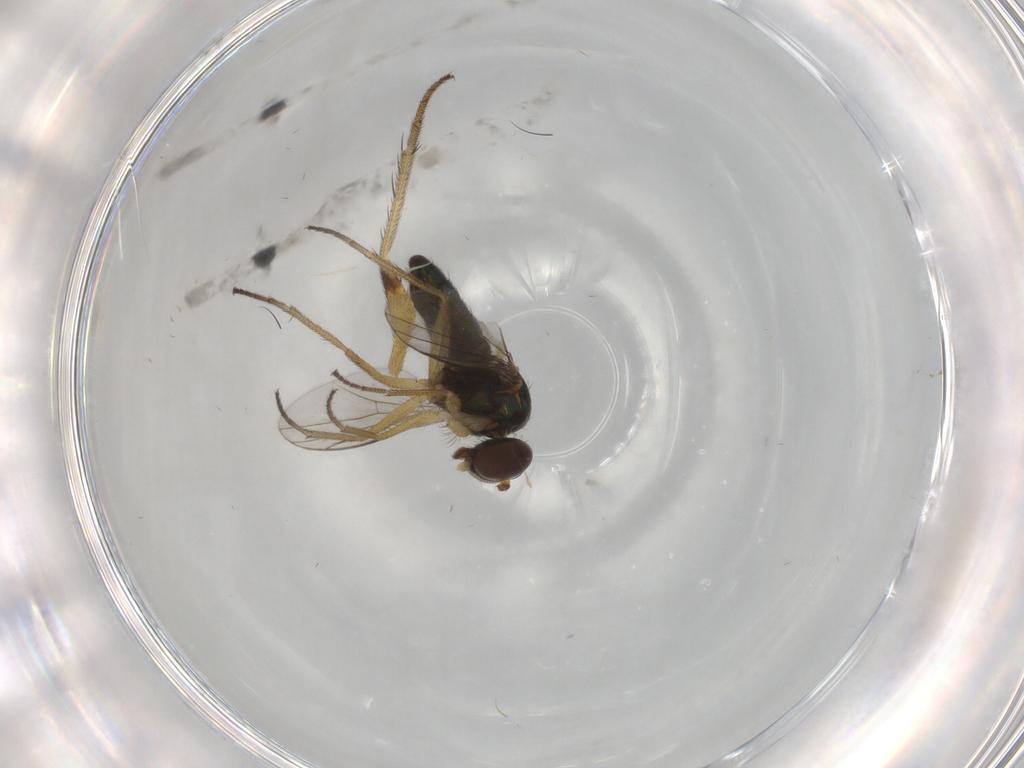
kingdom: Animalia
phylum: Arthropoda
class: Insecta
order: Diptera
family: Dolichopodidae
